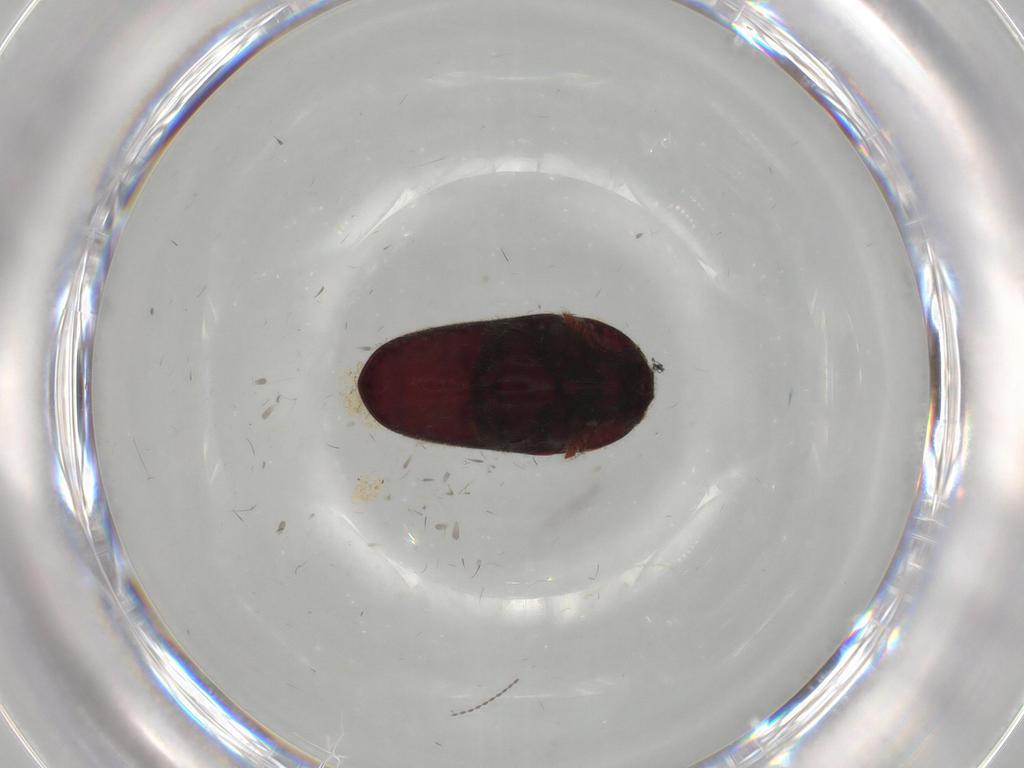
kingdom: Animalia
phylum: Arthropoda
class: Insecta
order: Coleoptera
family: Throscidae
